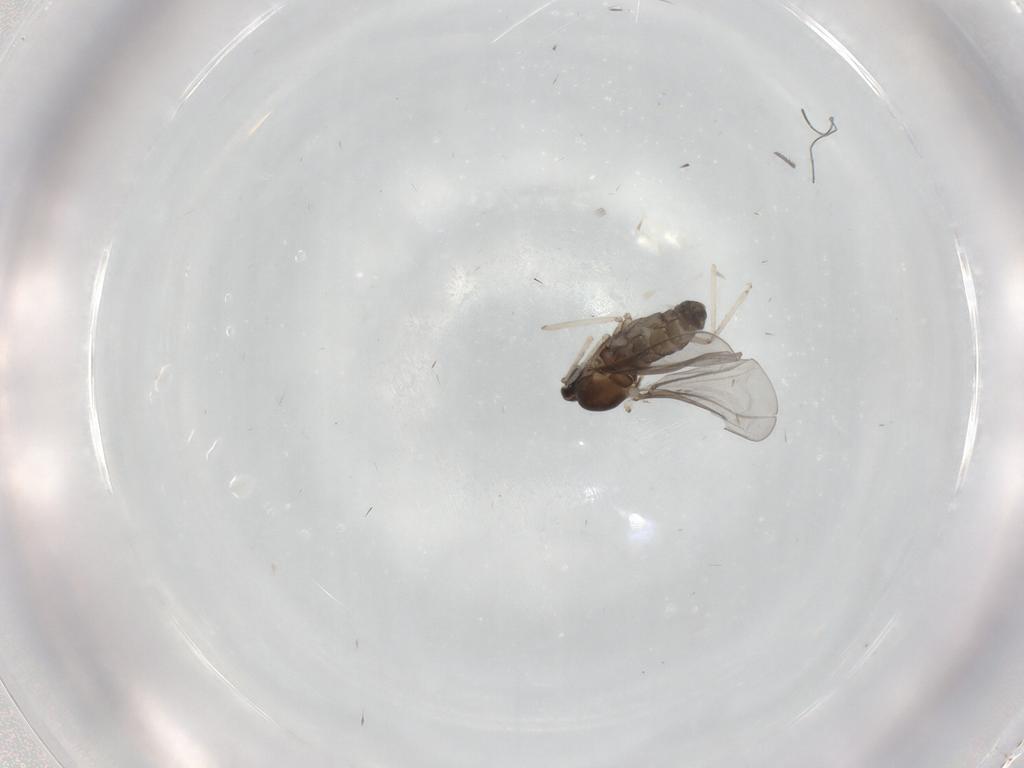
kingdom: Animalia
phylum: Arthropoda
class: Insecta
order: Diptera
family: Cecidomyiidae
